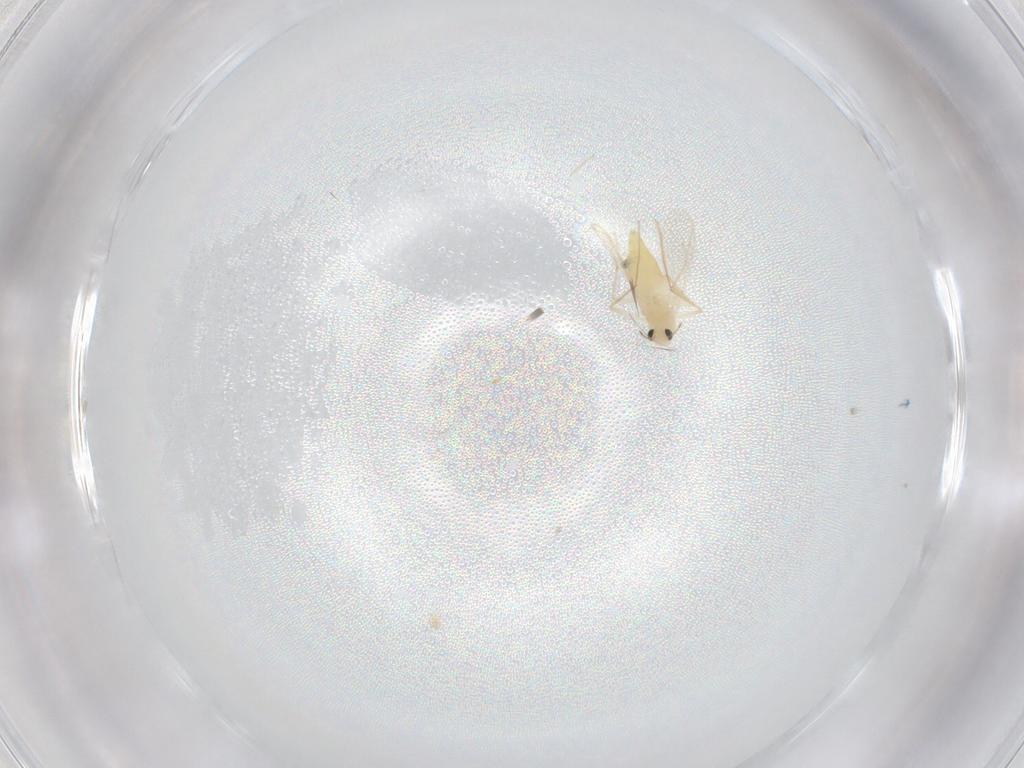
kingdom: Animalia
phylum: Arthropoda
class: Insecta
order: Diptera
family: Chironomidae
